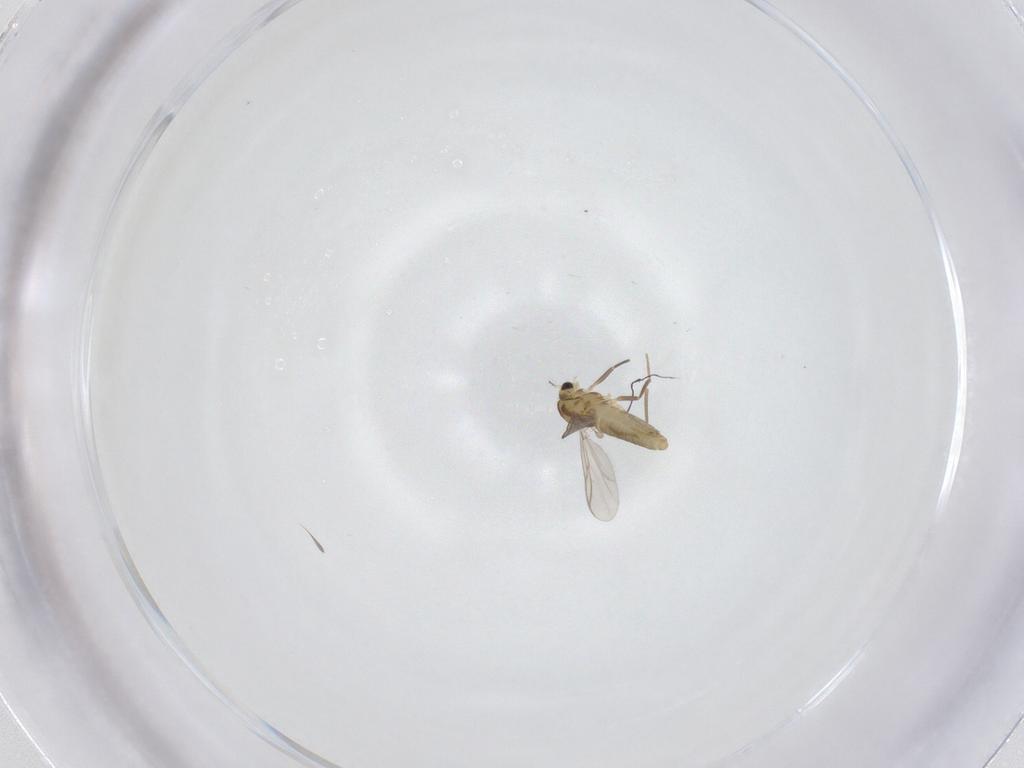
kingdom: Animalia
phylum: Arthropoda
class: Insecta
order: Diptera
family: Chironomidae
